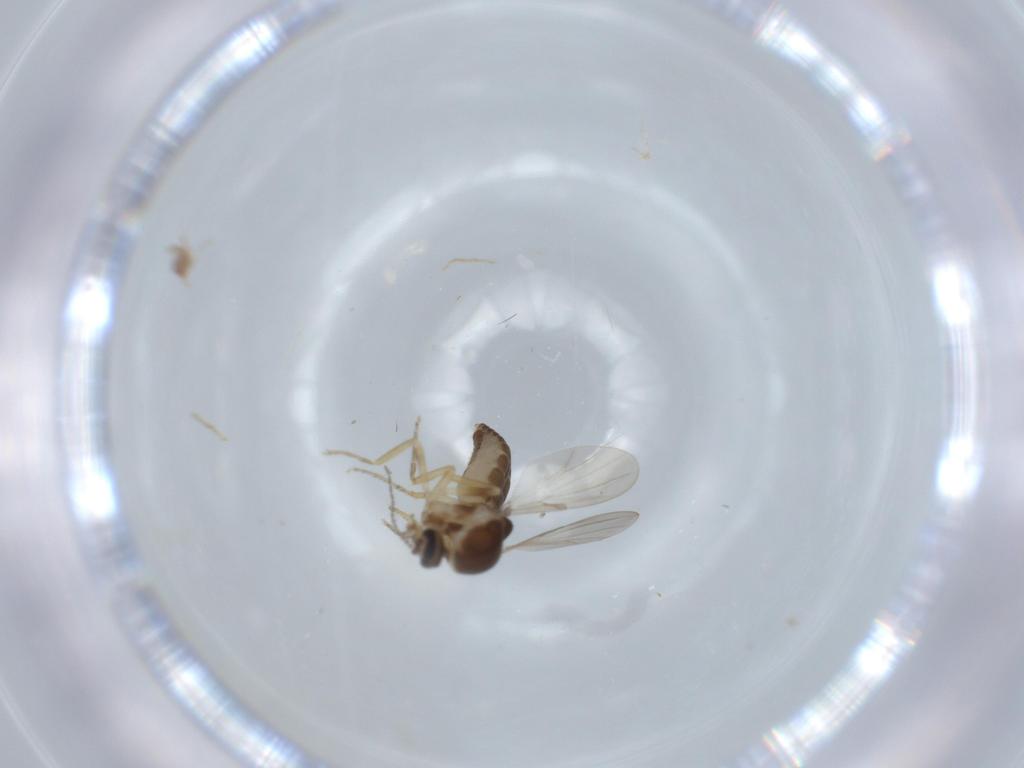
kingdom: Animalia
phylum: Arthropoda
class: Insecta
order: Diptera
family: Chironomidae
